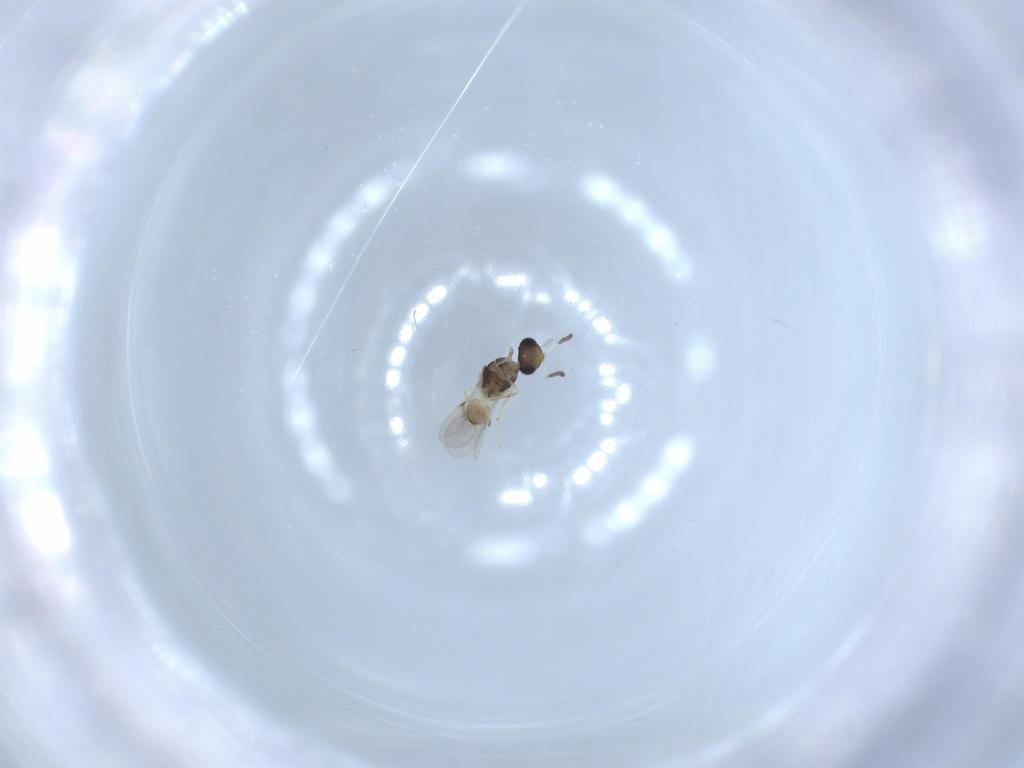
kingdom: Animalia
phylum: Arthropoda
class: Insecta
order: Hymenoptera
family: Scelionidae
